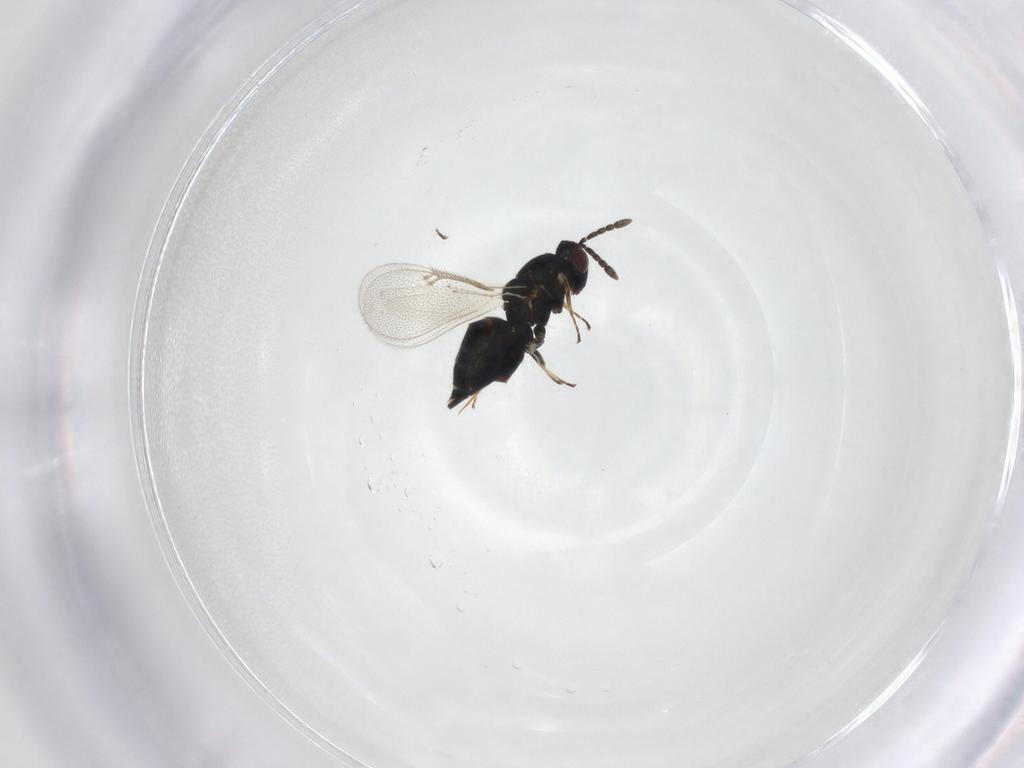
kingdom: Animalia
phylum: Arthropoda
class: Insecta
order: Hymenoptera
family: Eulophidae
